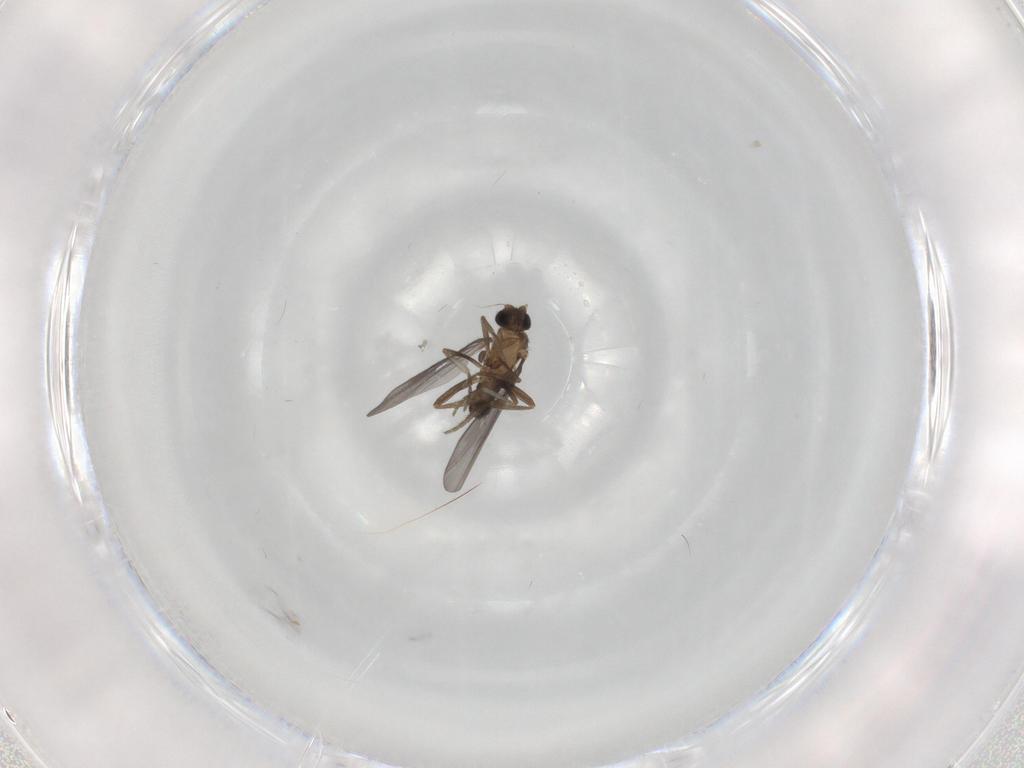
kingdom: Animalia
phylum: Arthropoda
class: Insecta
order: Diptera
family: Phoridae
